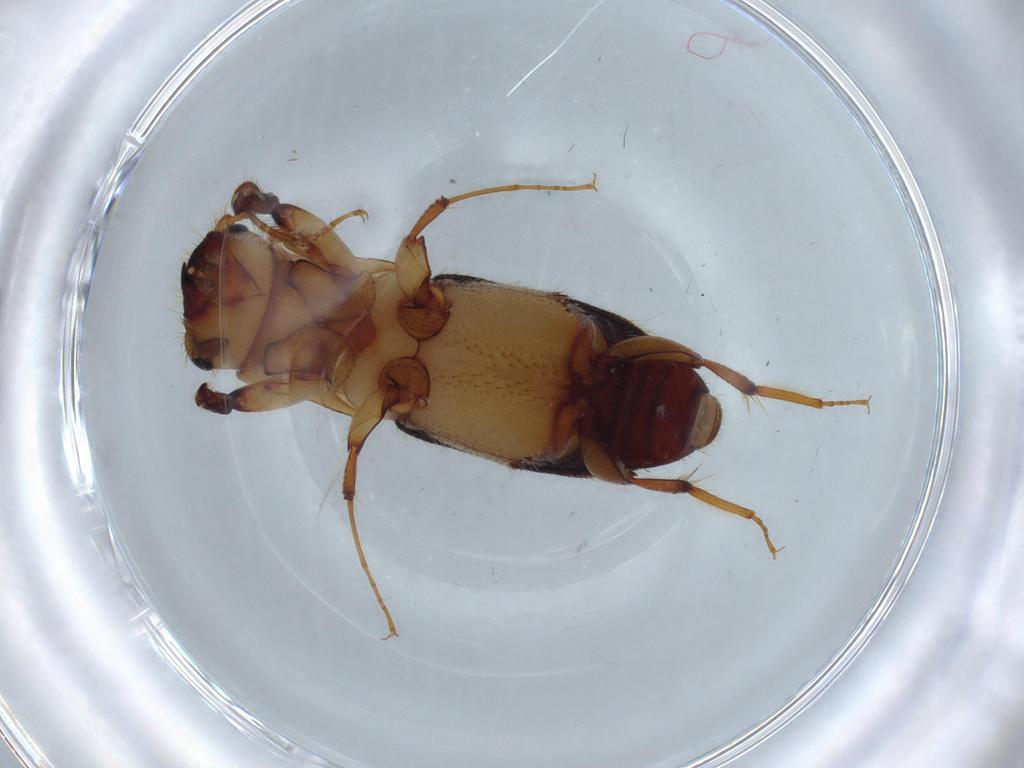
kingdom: Animalia
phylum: Arthropoda
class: Insecta
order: Coleoptera
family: Curculionidae
